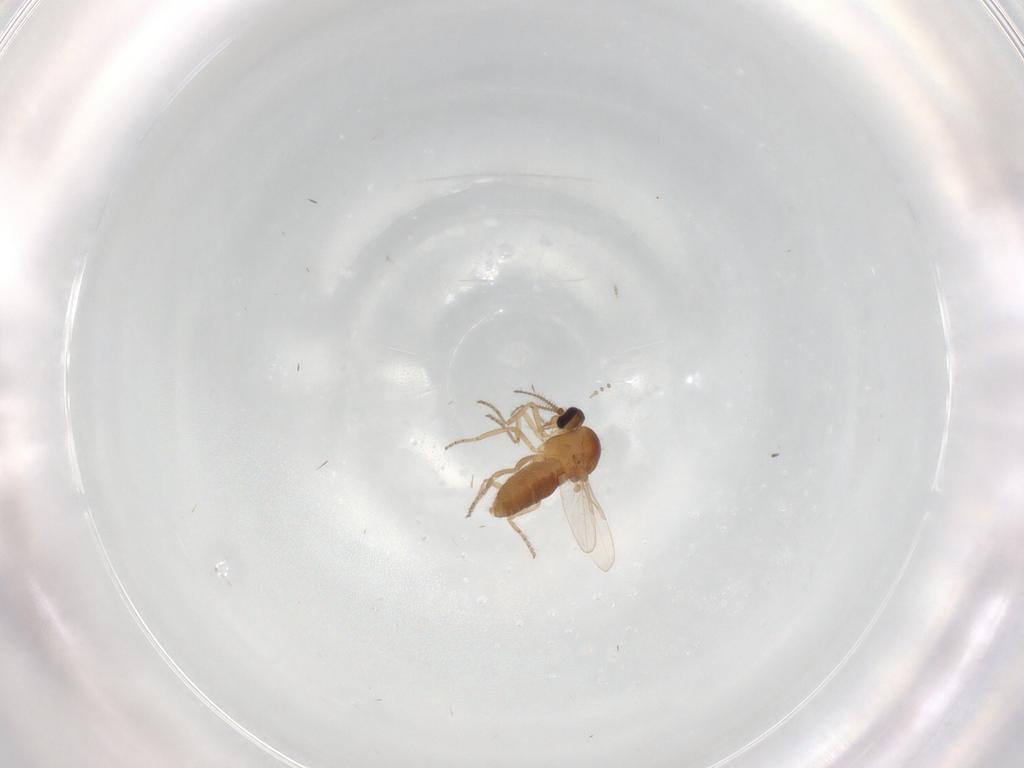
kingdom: Animalia
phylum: Arthropoda
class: Insecta
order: Diptera
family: Ceratopogonidae
